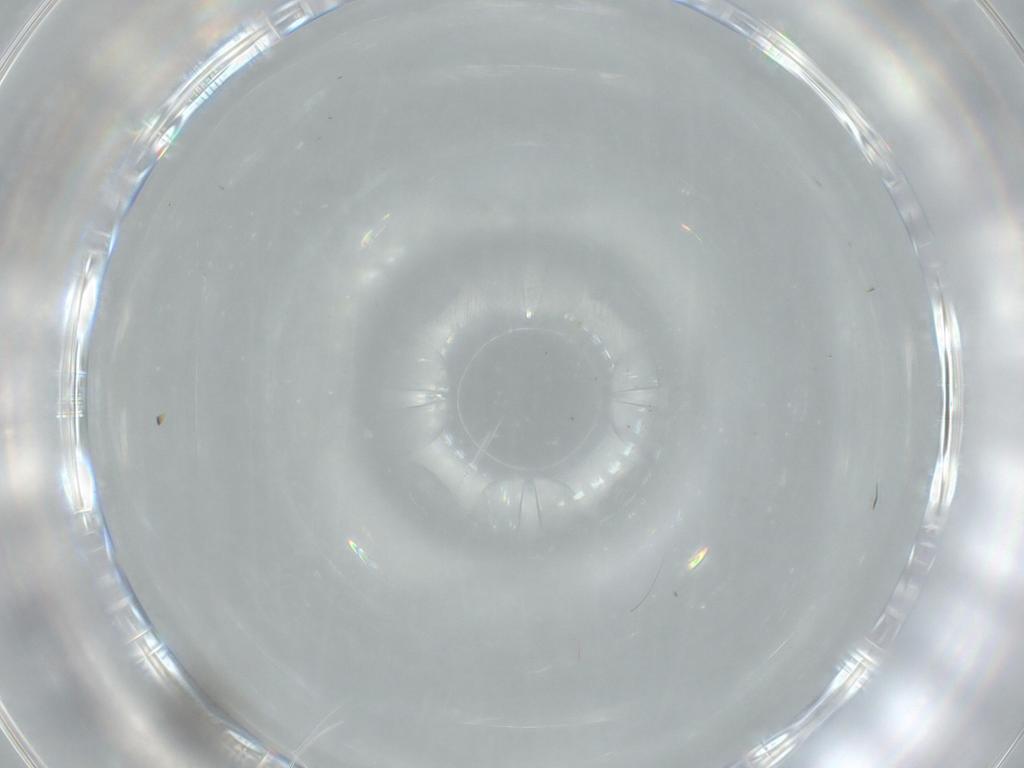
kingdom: Animalia
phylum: Arthropoda
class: Insecta
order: Diptera
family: Sciaridae
